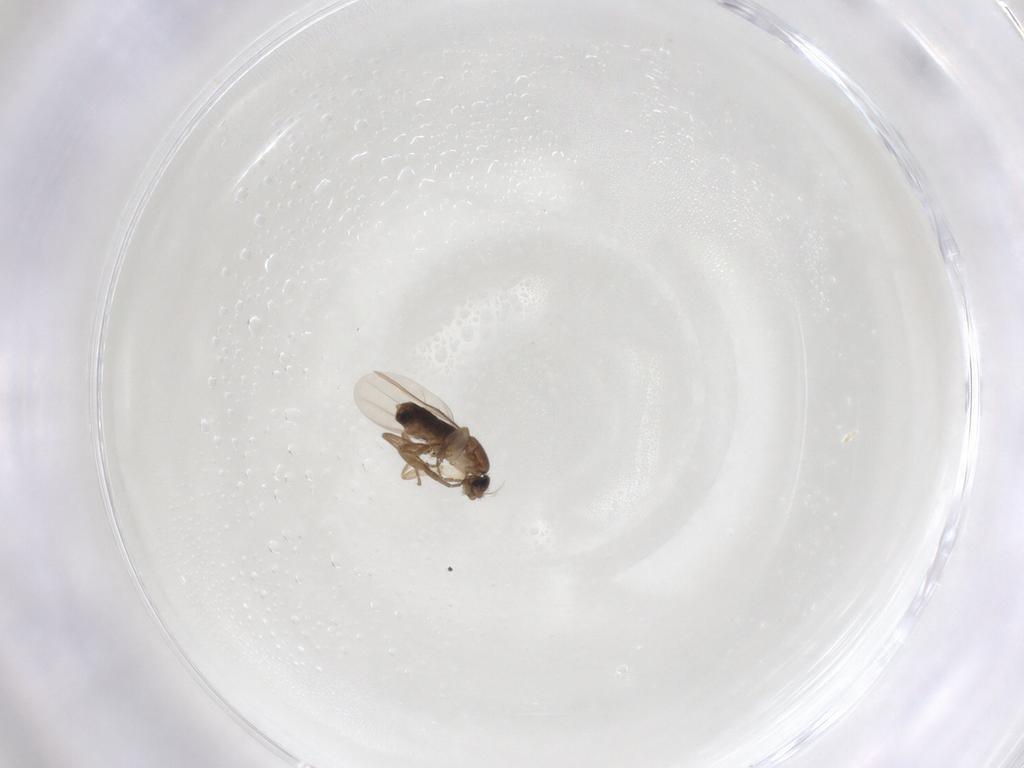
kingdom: Animalia
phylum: Arthropoda
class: Insecta
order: Diptera
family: Phoridae
